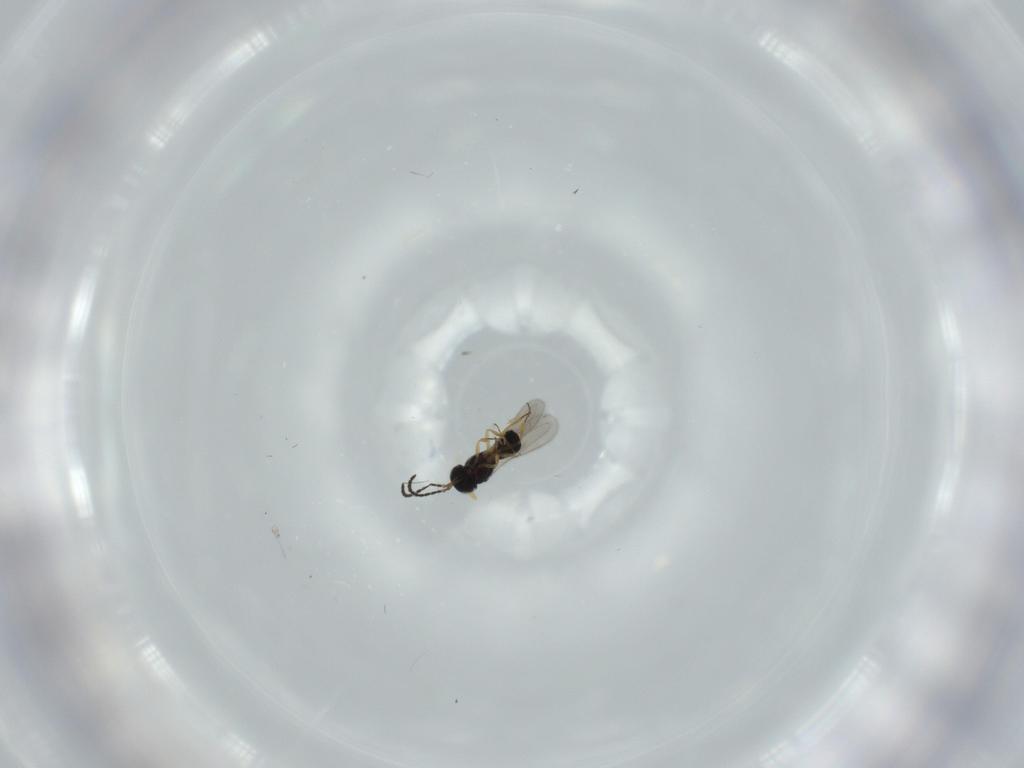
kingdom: Animalia
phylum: Arthropoda
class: Insecta
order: Hymenoptera
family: Scelionidae
